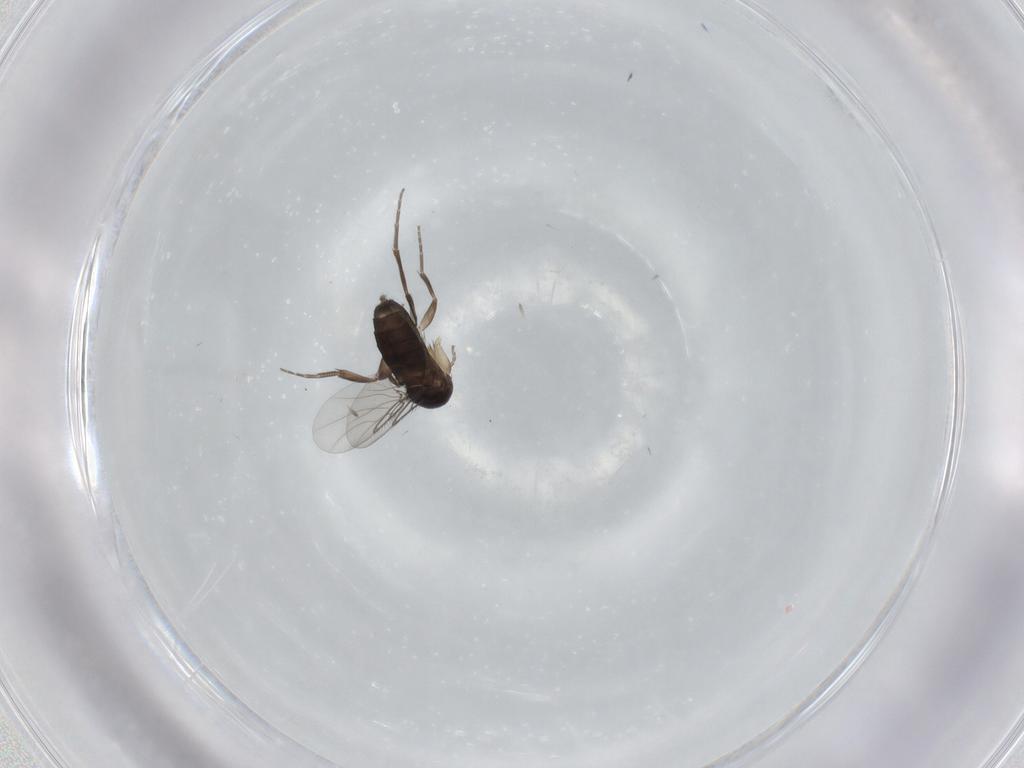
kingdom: Animalia
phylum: Arthropoda
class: Insecta
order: Diptera
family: Phoridae
